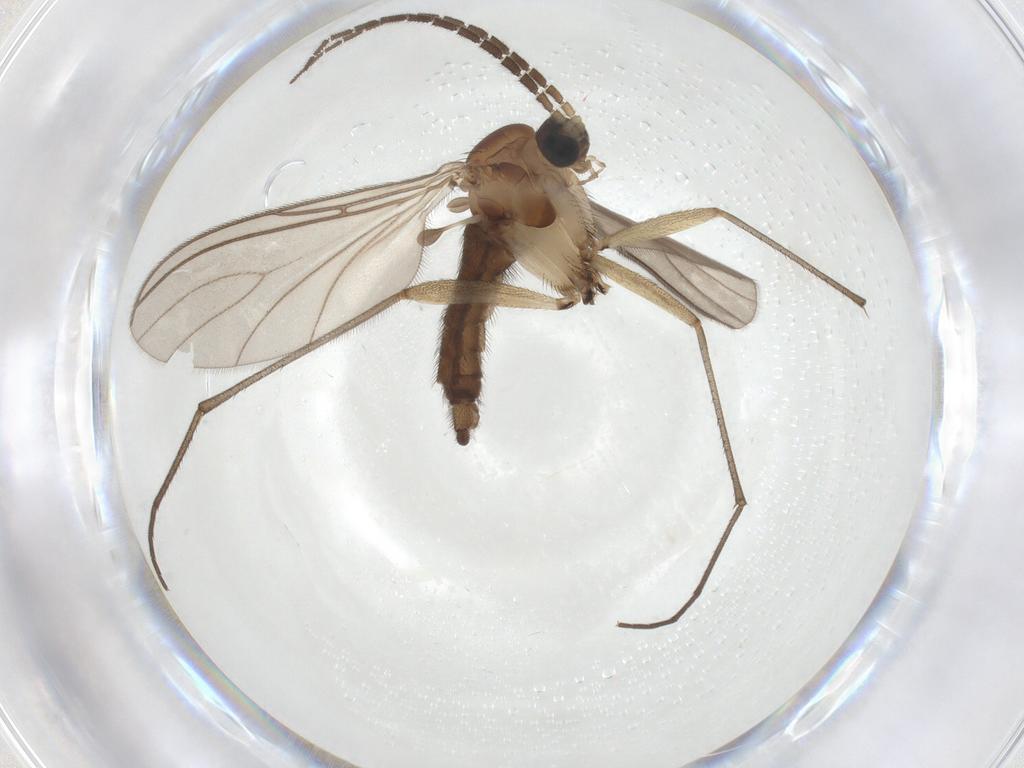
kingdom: Animalia
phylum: Arthropoda
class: Insecta
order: Diptera
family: Sciaridae
